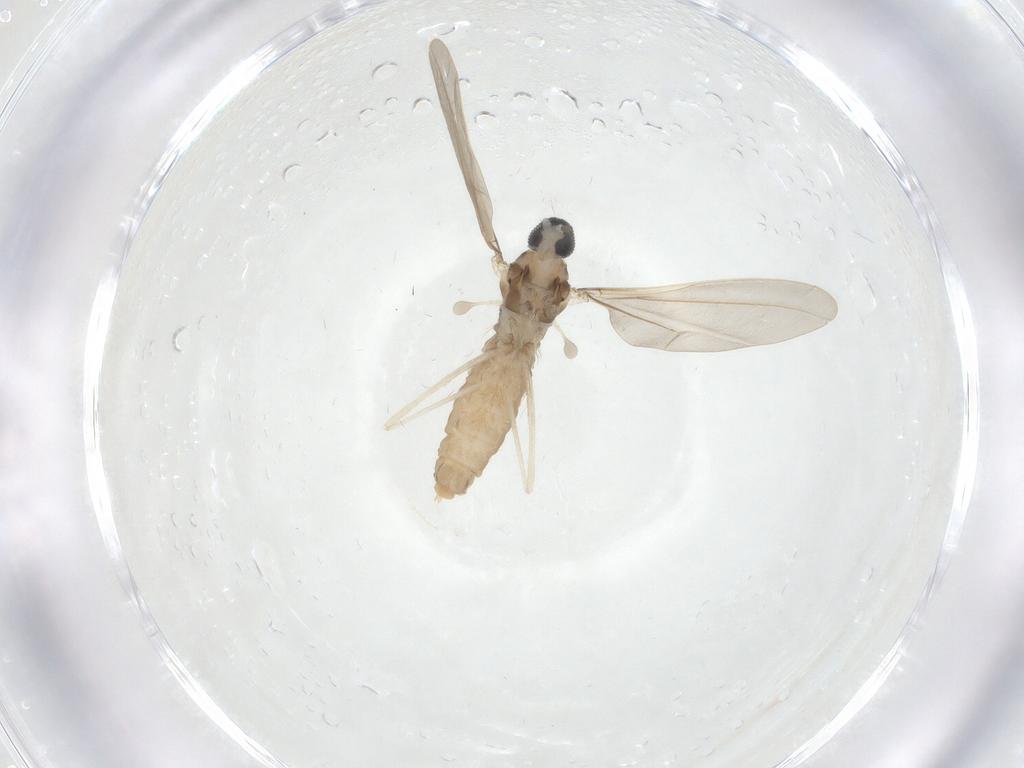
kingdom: Animalia
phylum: Arthropoda
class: Insecta
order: Diptera
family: Cecidomyiidae
